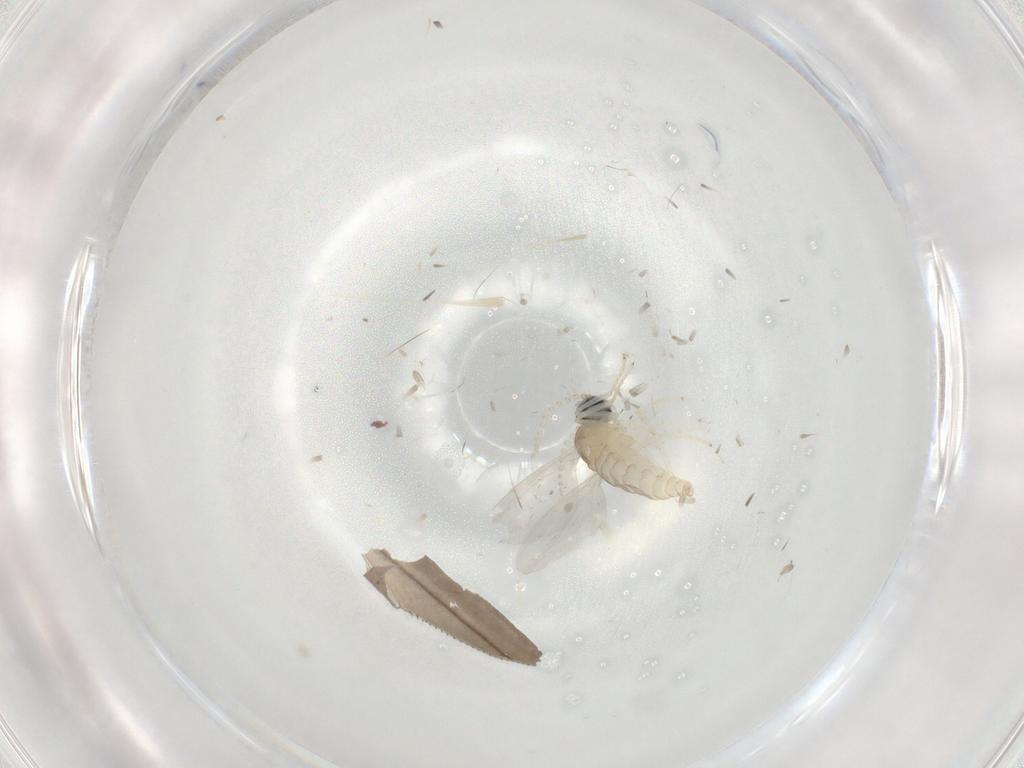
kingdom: Animalia
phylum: Arthropoda
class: Insecta
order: Diptera
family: Cecidomyiidae
